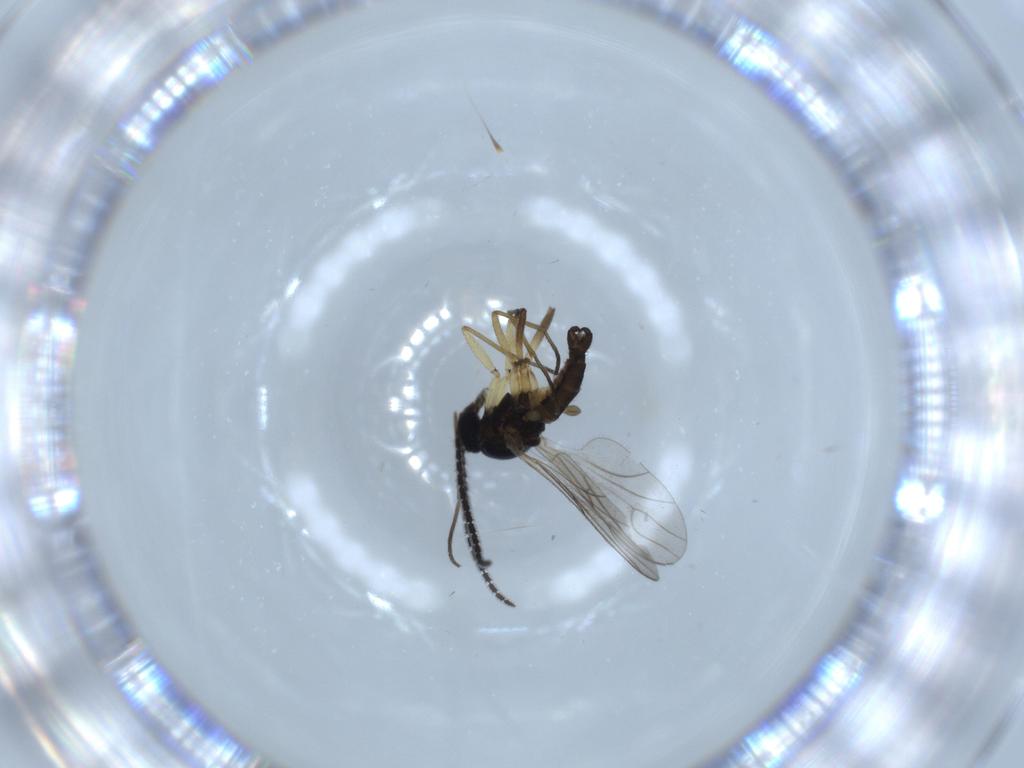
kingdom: Animalia
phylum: Arthropoda
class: Insecta
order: Diptera
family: Sciaridae
